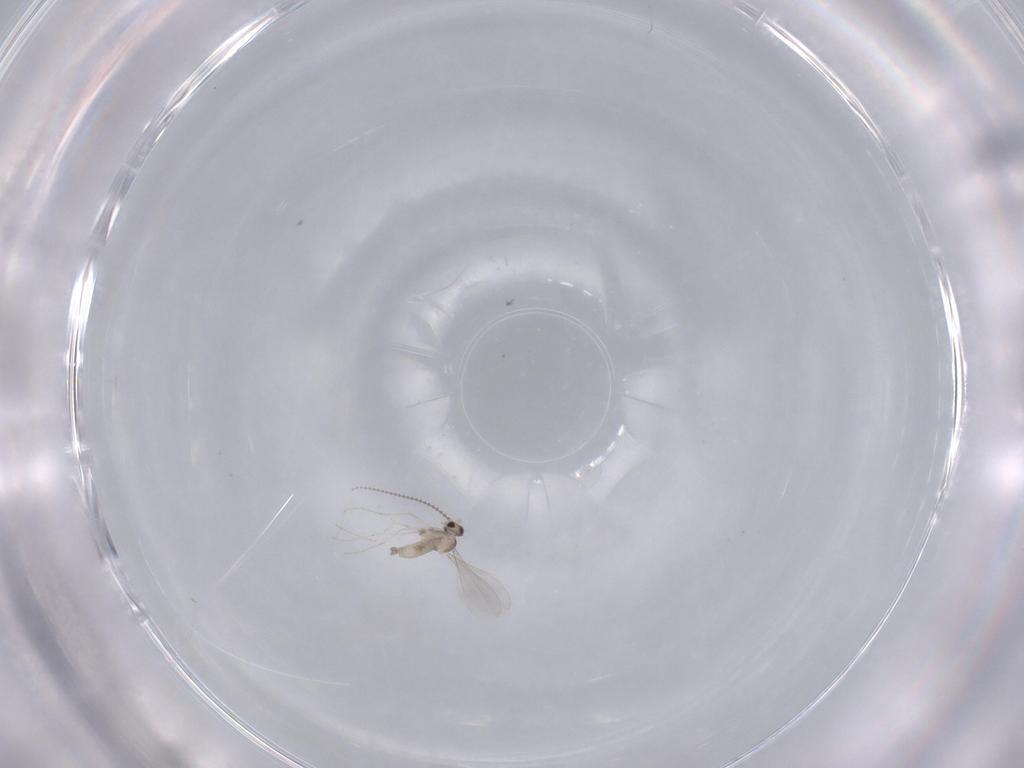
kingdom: Animalia
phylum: Arthropoda
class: Insecta
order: Diptera
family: Cecidomyiidae
